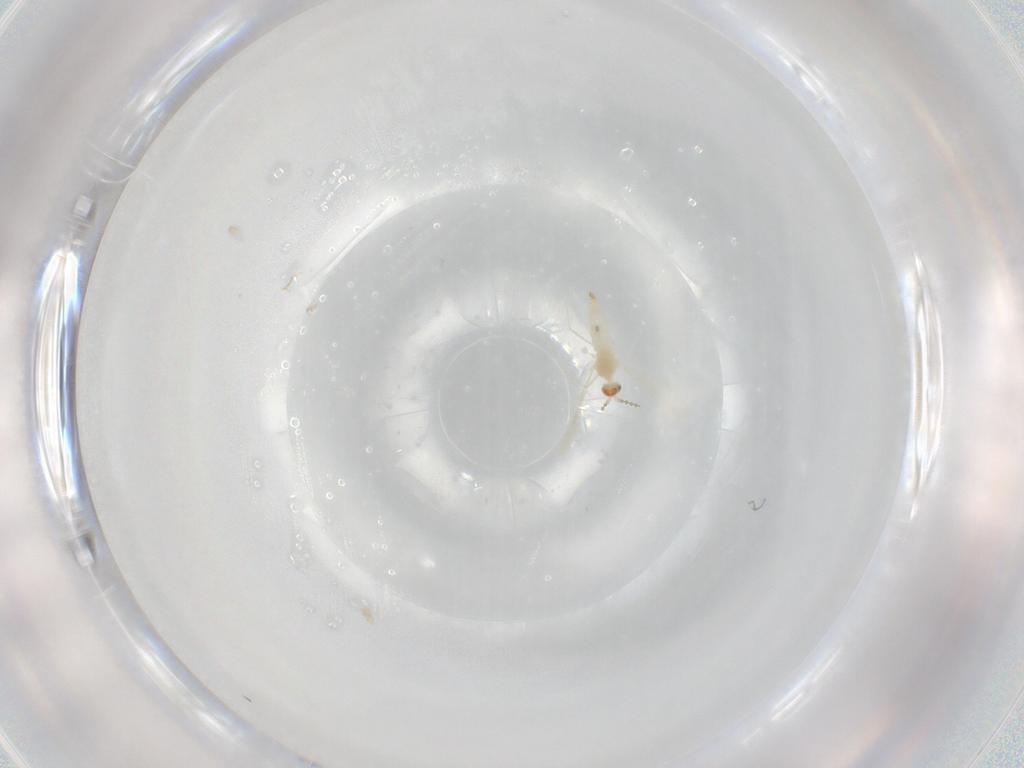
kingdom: Animalia
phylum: Arthropoda
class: Insecta
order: Diptera
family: Cecidomyiidae
